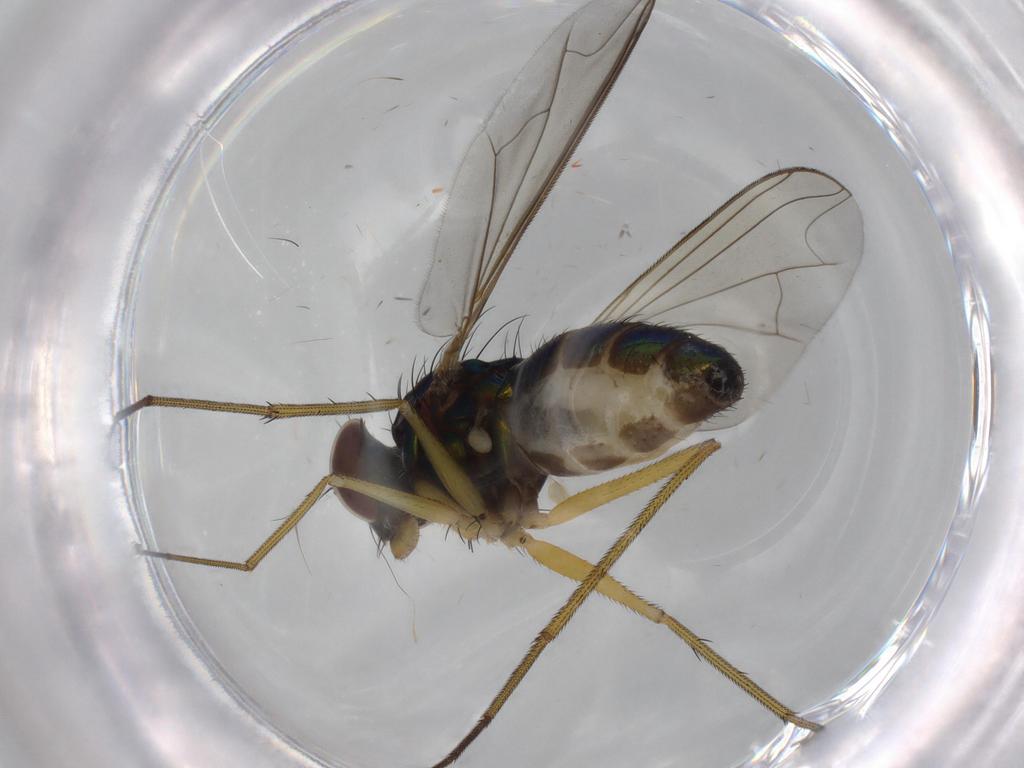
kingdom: Animalia
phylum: Arthropoda
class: Insecta
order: Diptera
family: Dolichopodidae
